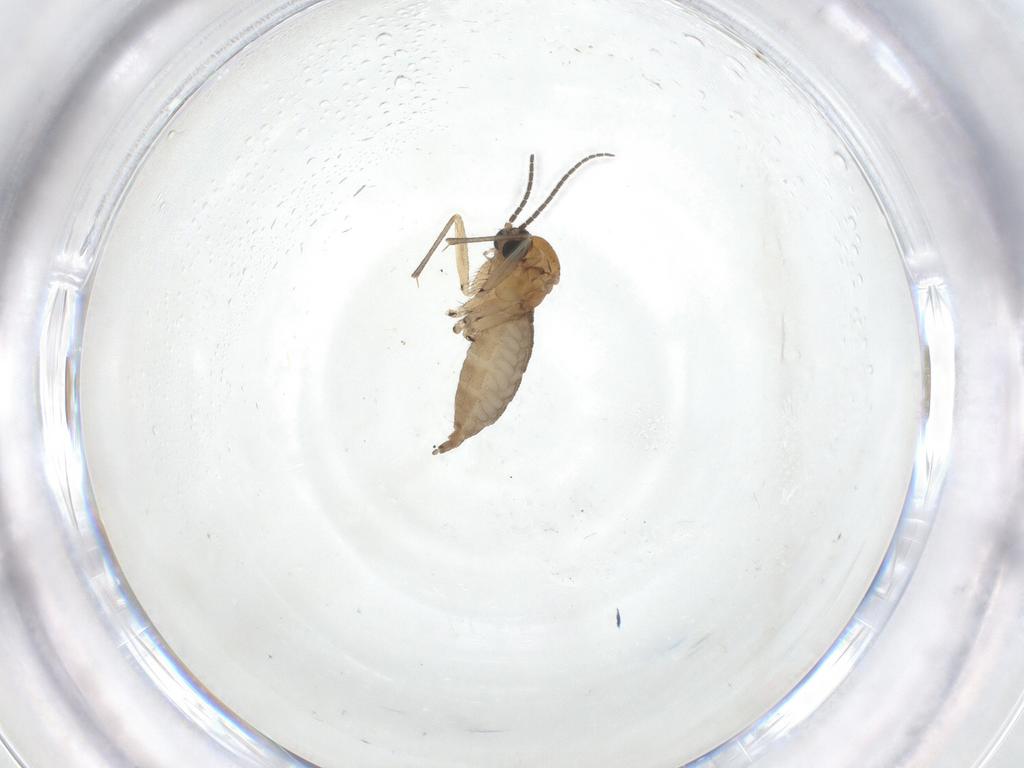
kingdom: Animalia
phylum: Arthropoda
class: Insecta
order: Diptera
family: Sciaridae
